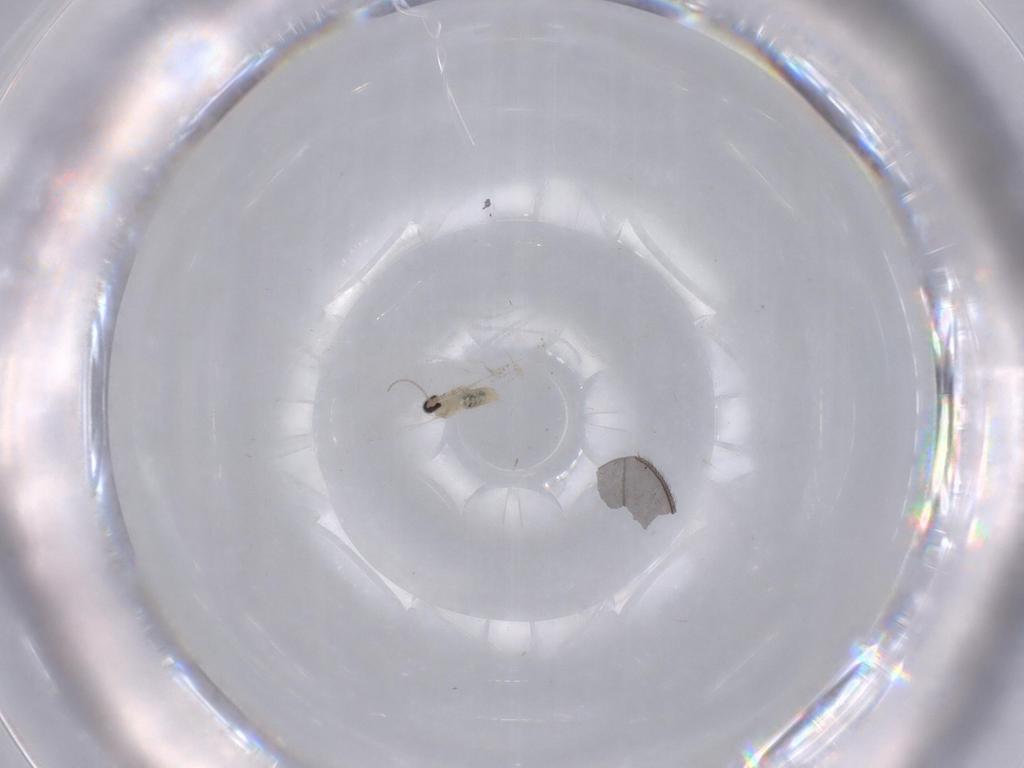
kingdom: Animalia
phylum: Arthropoda
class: Insecta
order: Diptera
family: Cecidomyiidae
